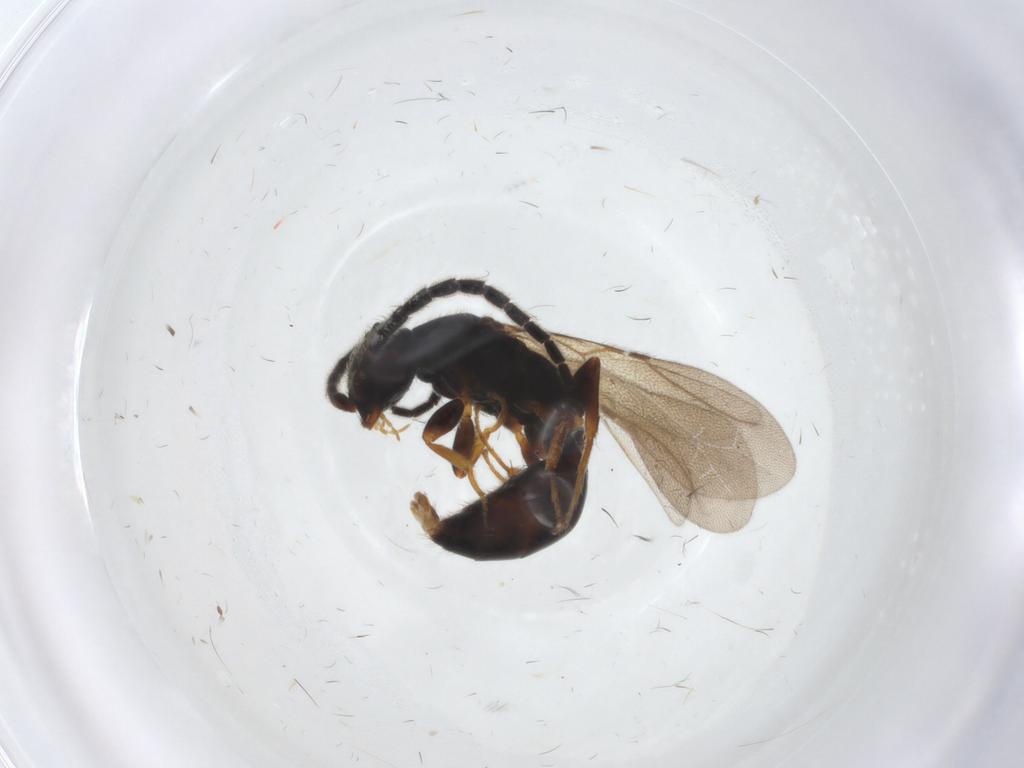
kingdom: Animalia
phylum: Arthropoda
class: Insecta
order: Hymenoptera
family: Bethylidae
